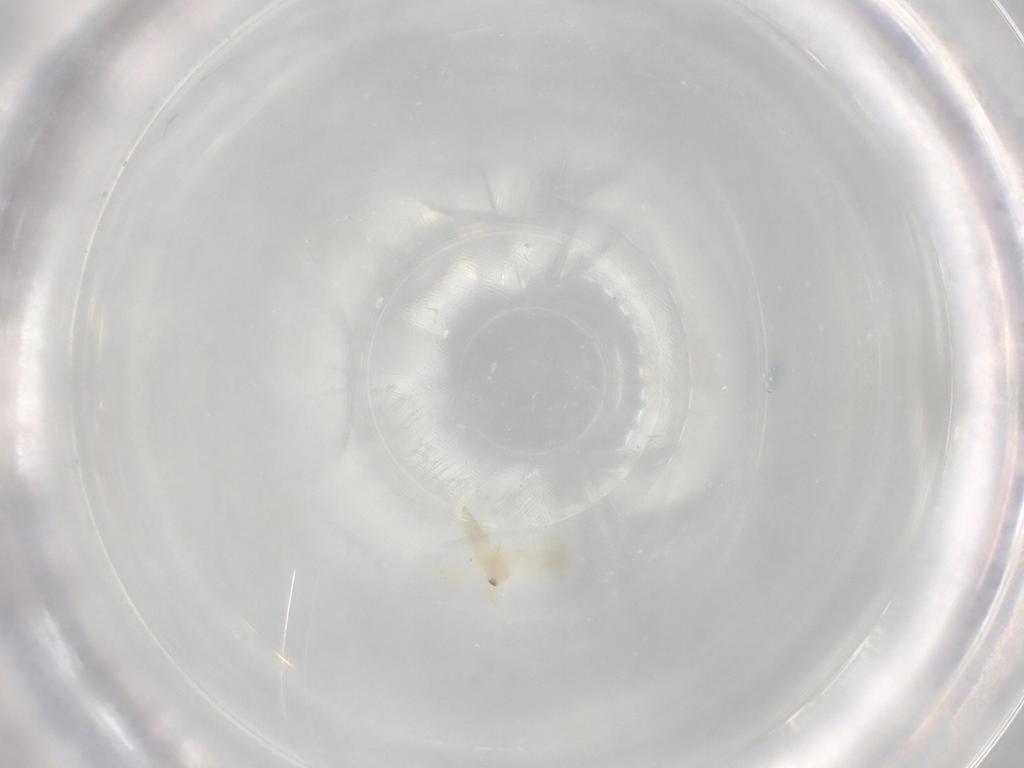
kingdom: Animalia
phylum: Arthropoda
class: Insecta
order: Hemiptera
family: Aleyrodidae
